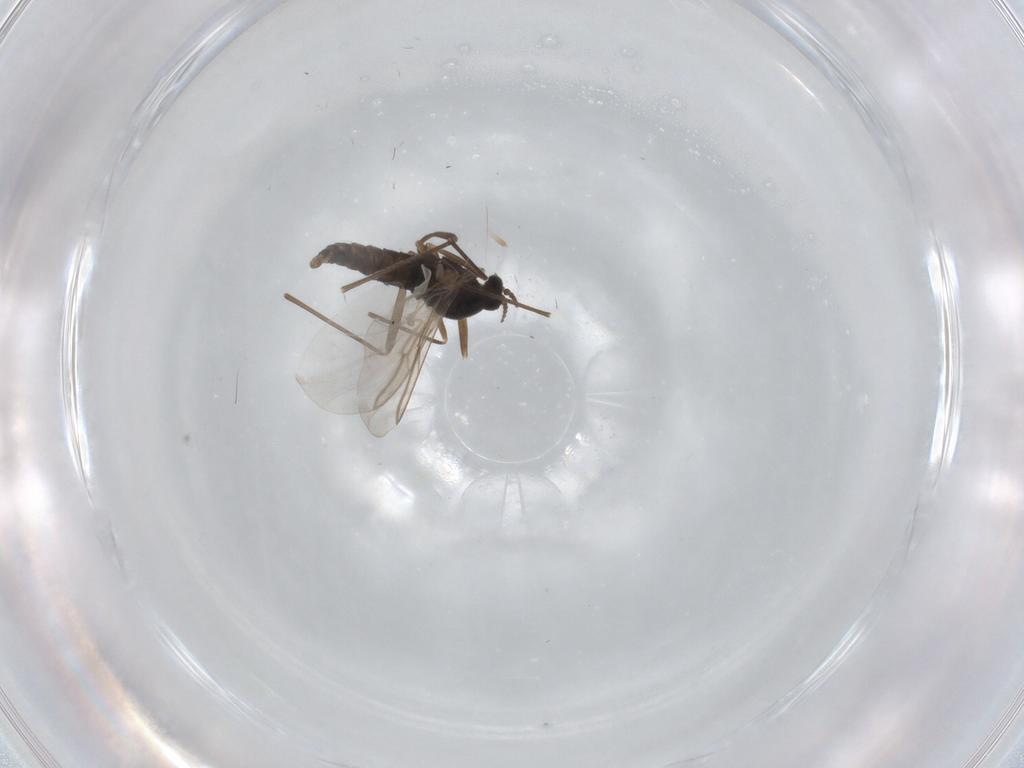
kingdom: Animalia
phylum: Arthropoda
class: Insecta
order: Diptera
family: Cecidomyiidae
